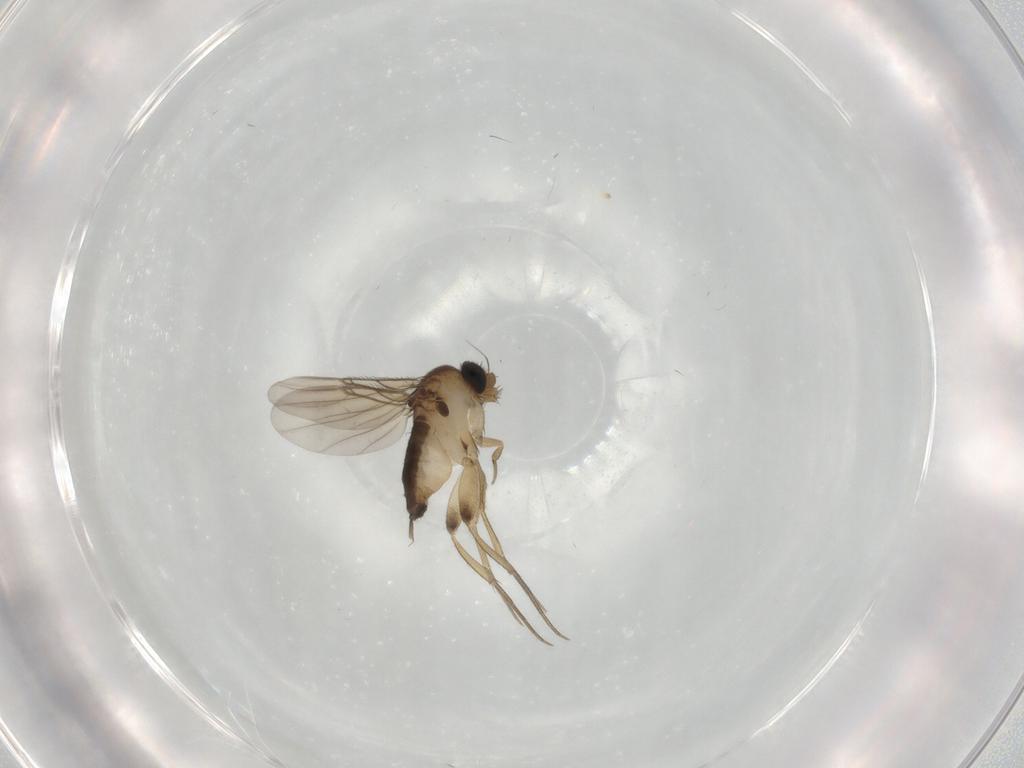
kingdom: Animalia
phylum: Arthropoda
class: Insecta
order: Diptera
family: Phoridae
